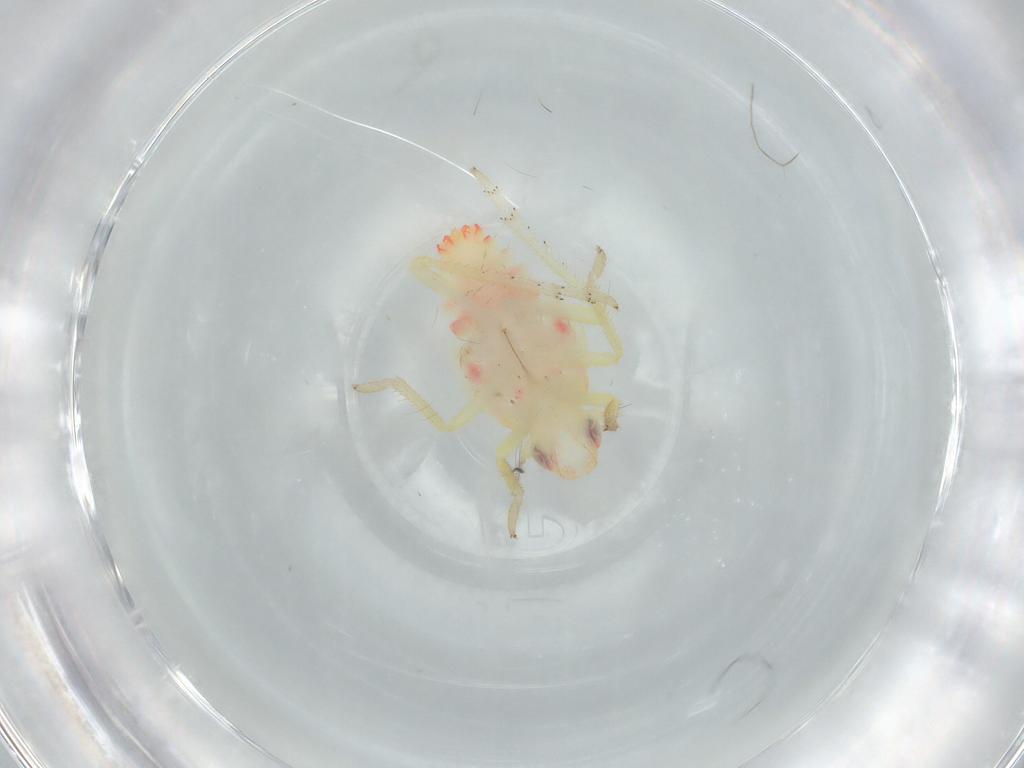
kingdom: Animalia
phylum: Arthropoda
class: Insecta
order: Hemiptera
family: Tropiduchidae
